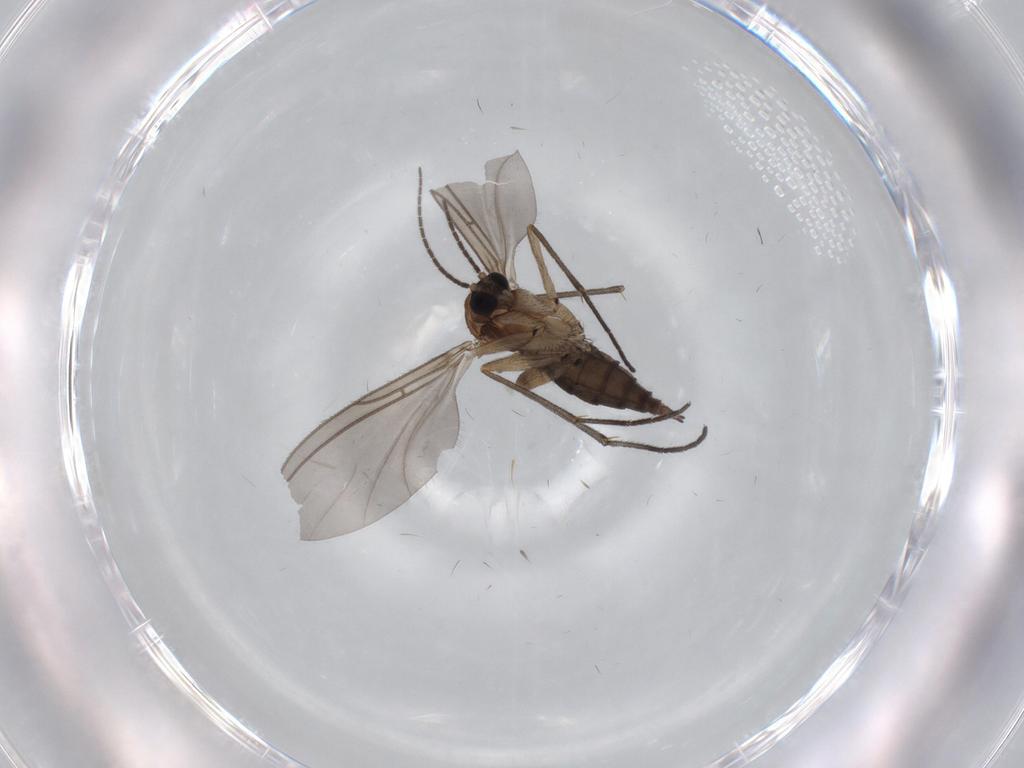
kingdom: Animalia
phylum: Arthropoda
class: Insecta
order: Diptera
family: Sciaridae
